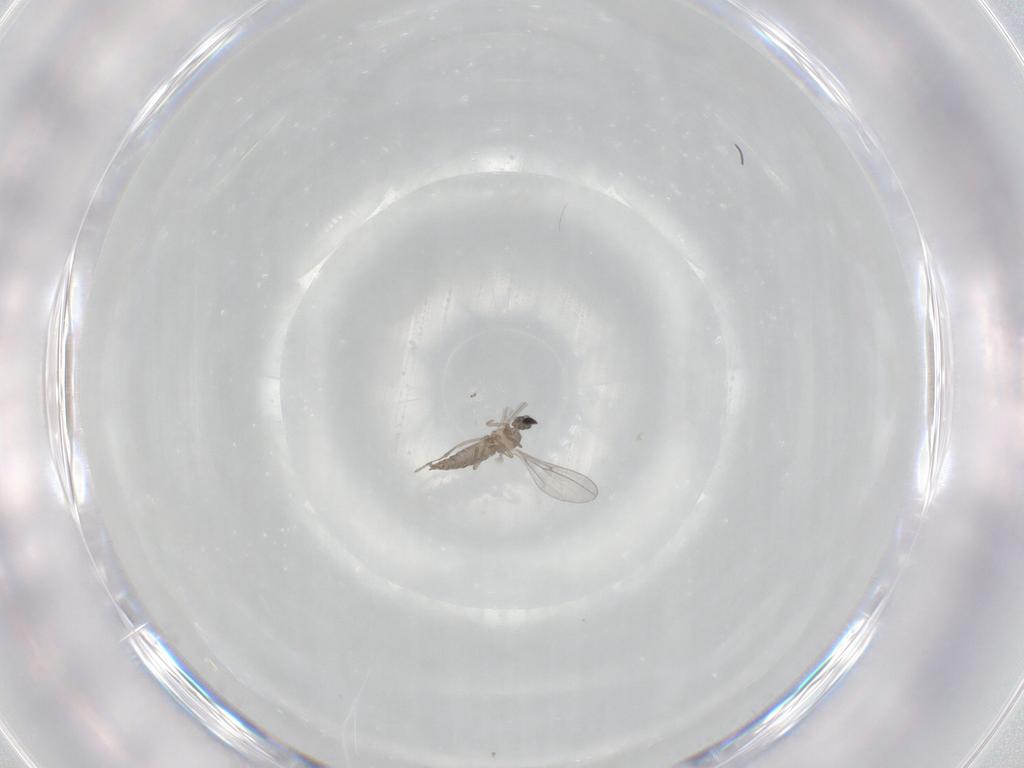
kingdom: Animalia
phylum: Arthropoda
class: Insecta
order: Diptera
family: Cecidomyiidae
